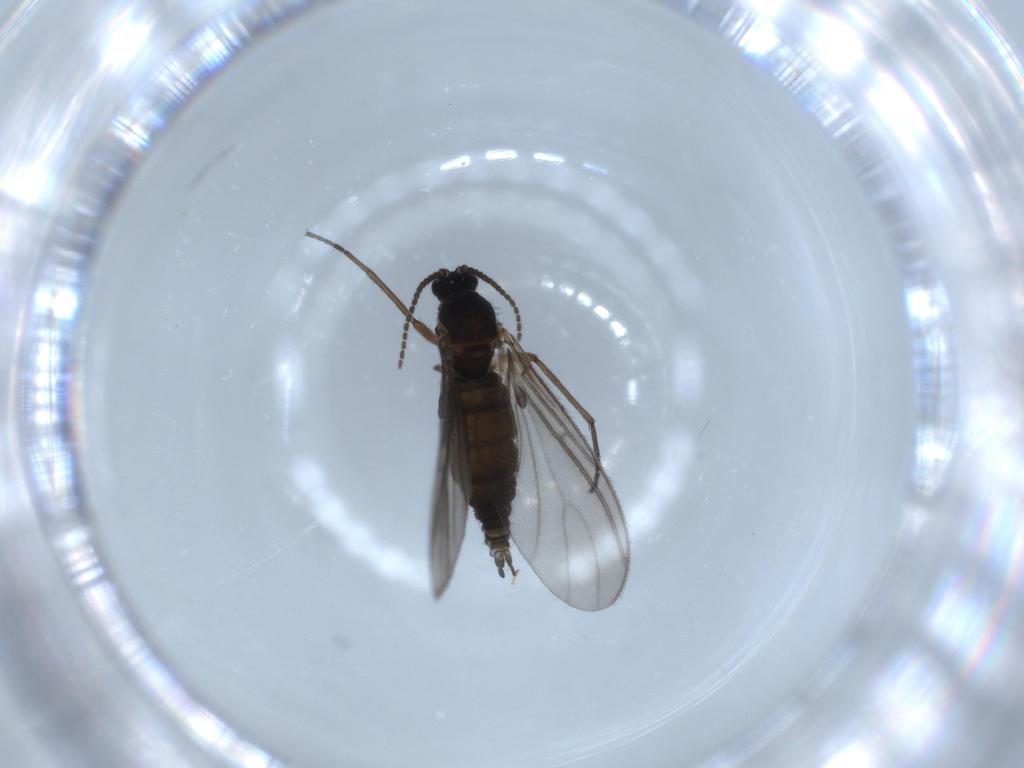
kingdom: Animalia
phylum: Arthropoda
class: Insecta
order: Diptera
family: Sciaridae
